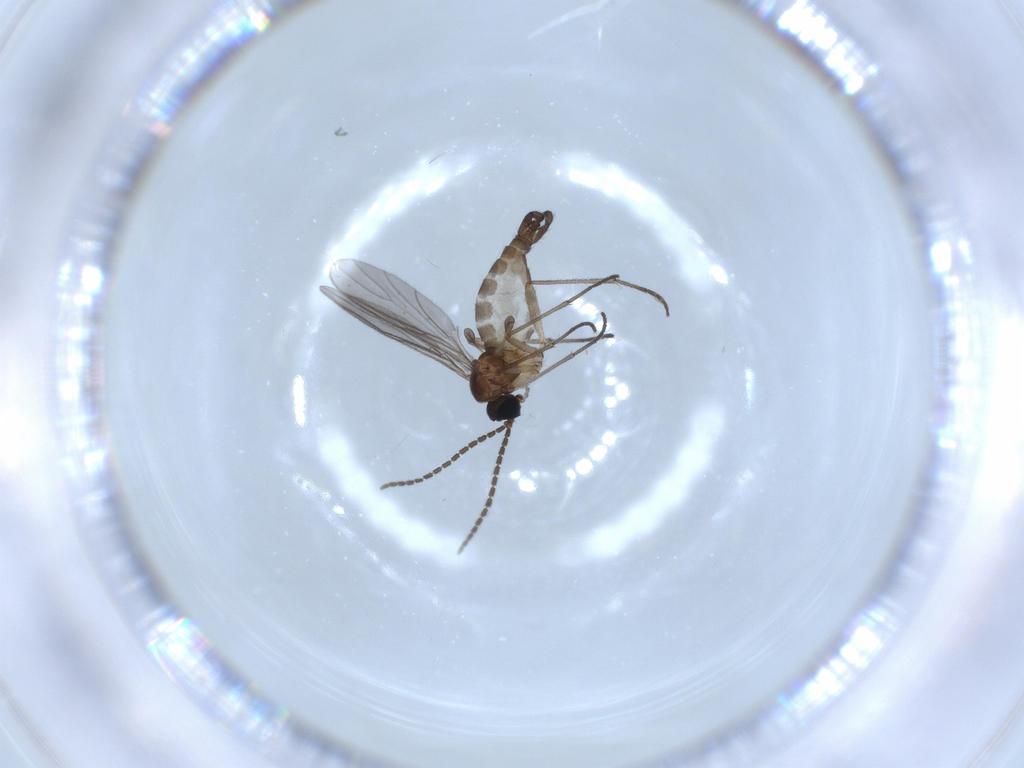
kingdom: Animalia
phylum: Arthropoda
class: Insecta
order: Diptera
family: Sciaridae
